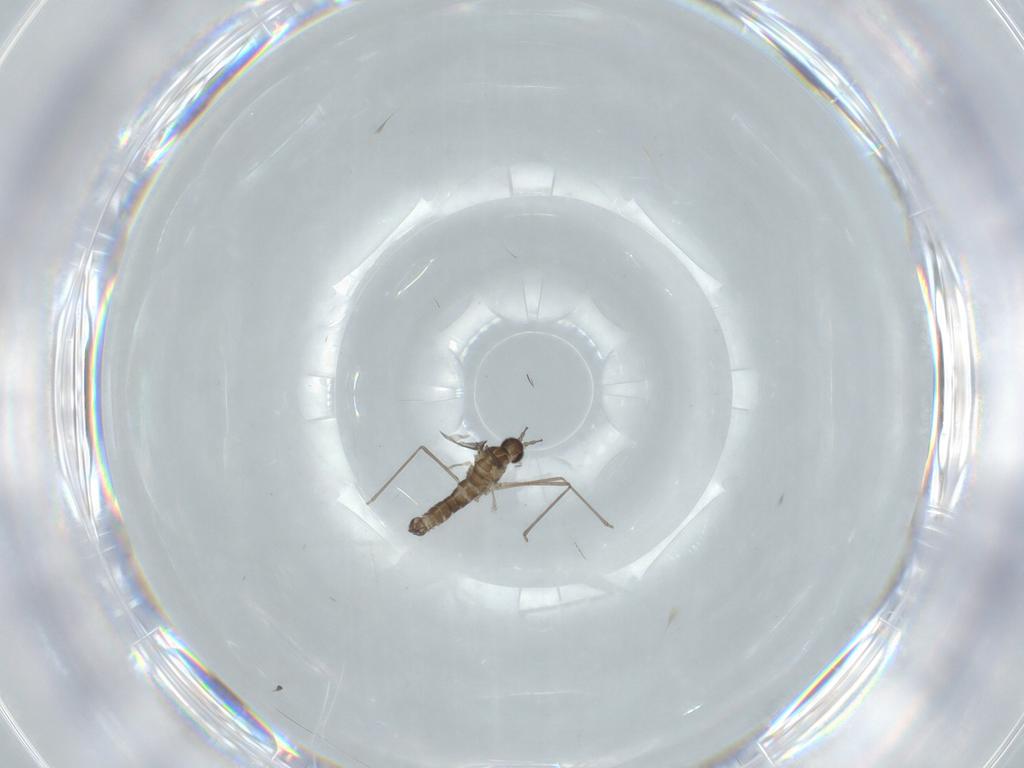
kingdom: Animalia
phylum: Arthropoda
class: Insecta
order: Diptera
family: Cecidomyiidae
